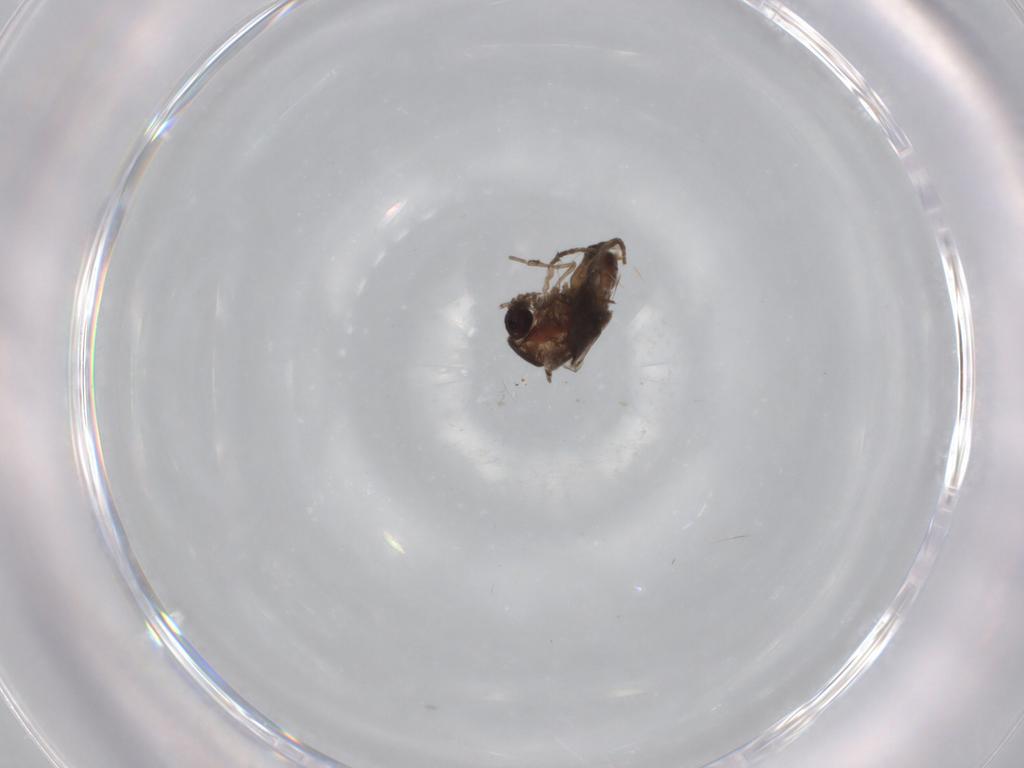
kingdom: Animalia
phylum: Arthropoda
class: Insecta
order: Diptera
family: Psychodidae
